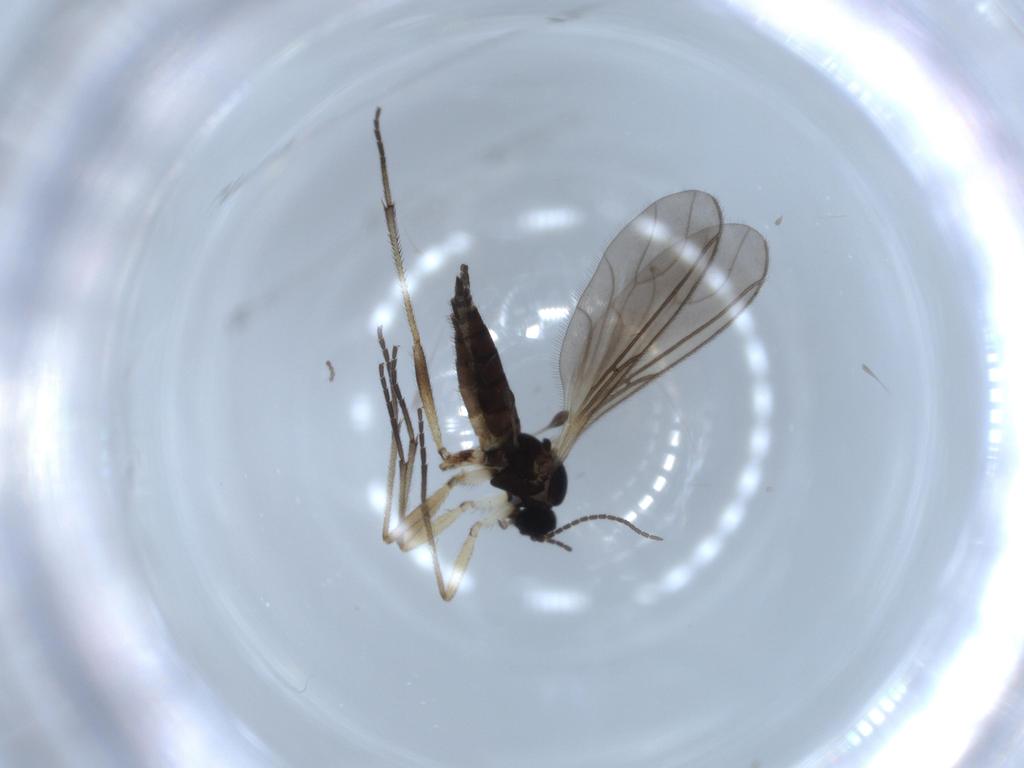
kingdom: Animalia
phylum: Arthropoda
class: Insecta
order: Diptera
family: Sciaridae
